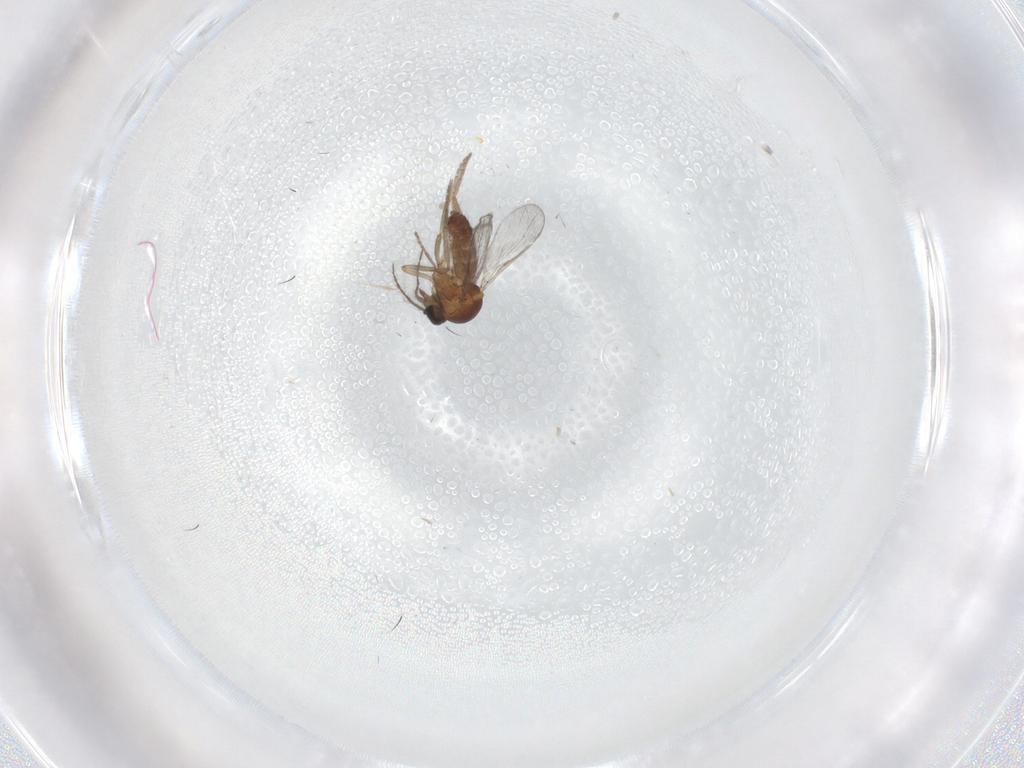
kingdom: Animalia
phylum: Arthropoda
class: Insecta
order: Diptera
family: Ceratopogonidae
